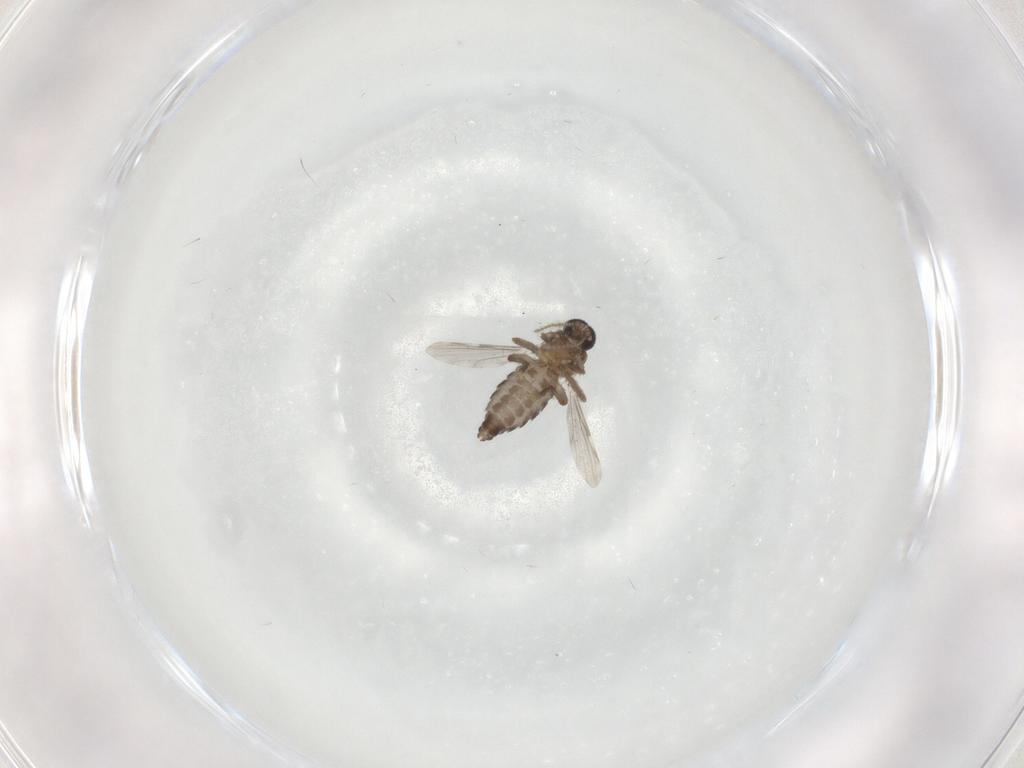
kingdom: Animalia
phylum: Arthropoda
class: Insecta
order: Diptera
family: Ceratopogonidae
